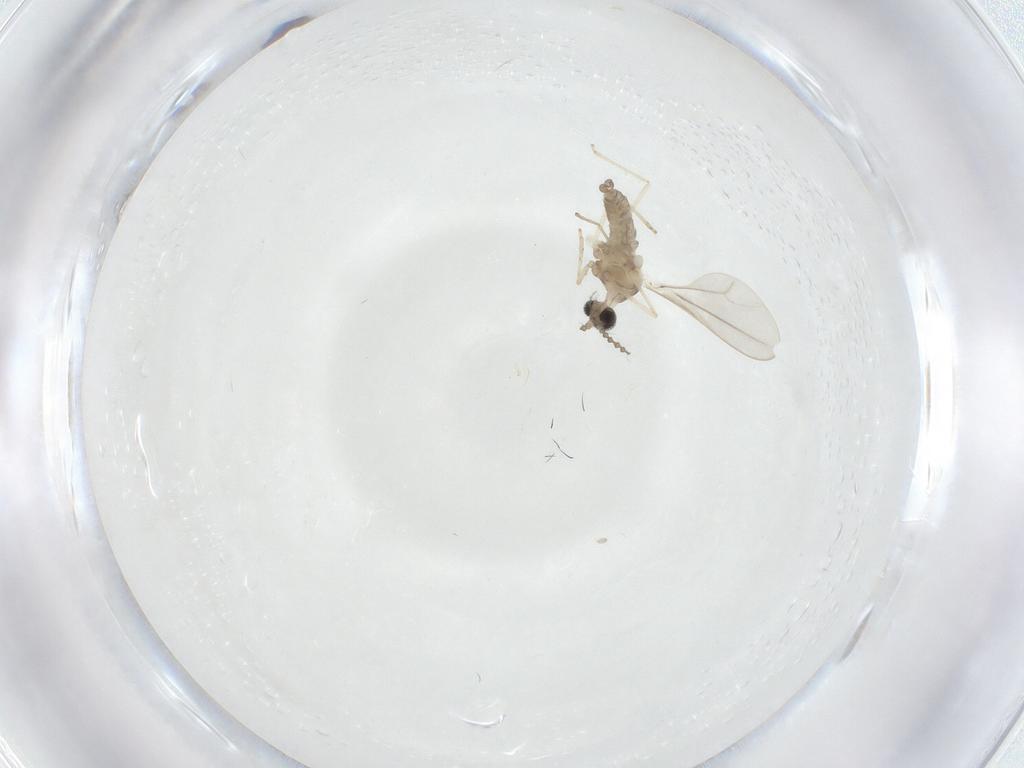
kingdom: Animalia
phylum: Arthropoda
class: Insecta
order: Diptera
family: Cecidomyiidae
